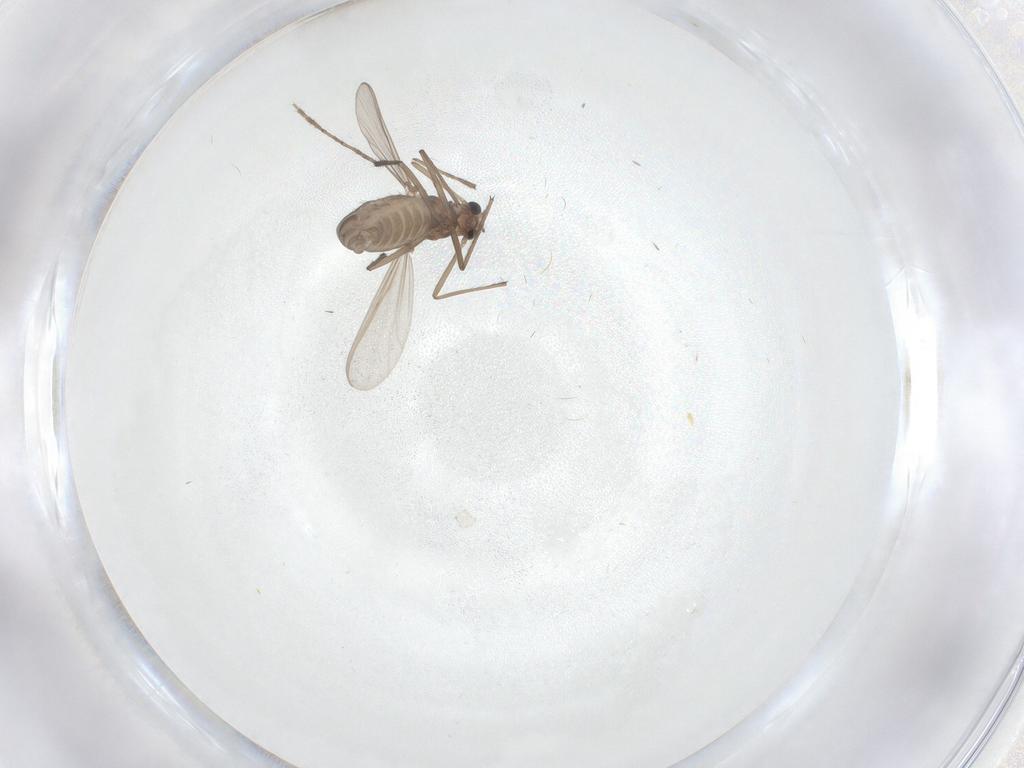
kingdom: Animalia
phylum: Arthropoda
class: Insecta
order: Diptera
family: Chironomidae
